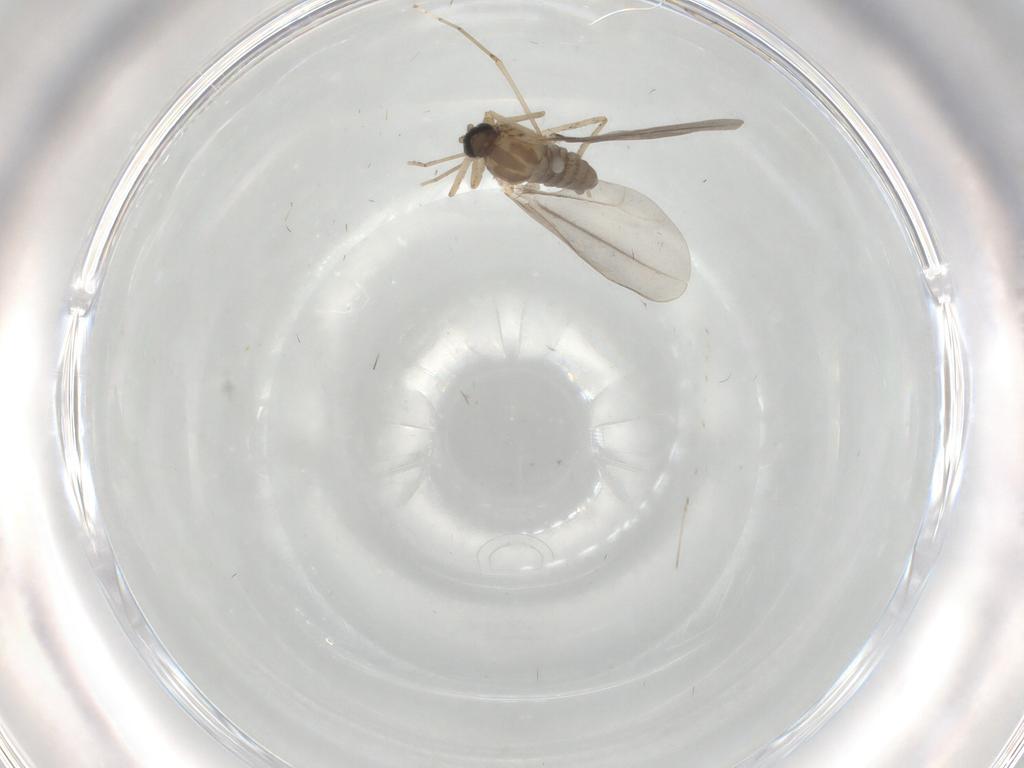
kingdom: Animalia
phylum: Arthropoda
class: Insecta
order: Diptera
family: Cecidomyiidae
